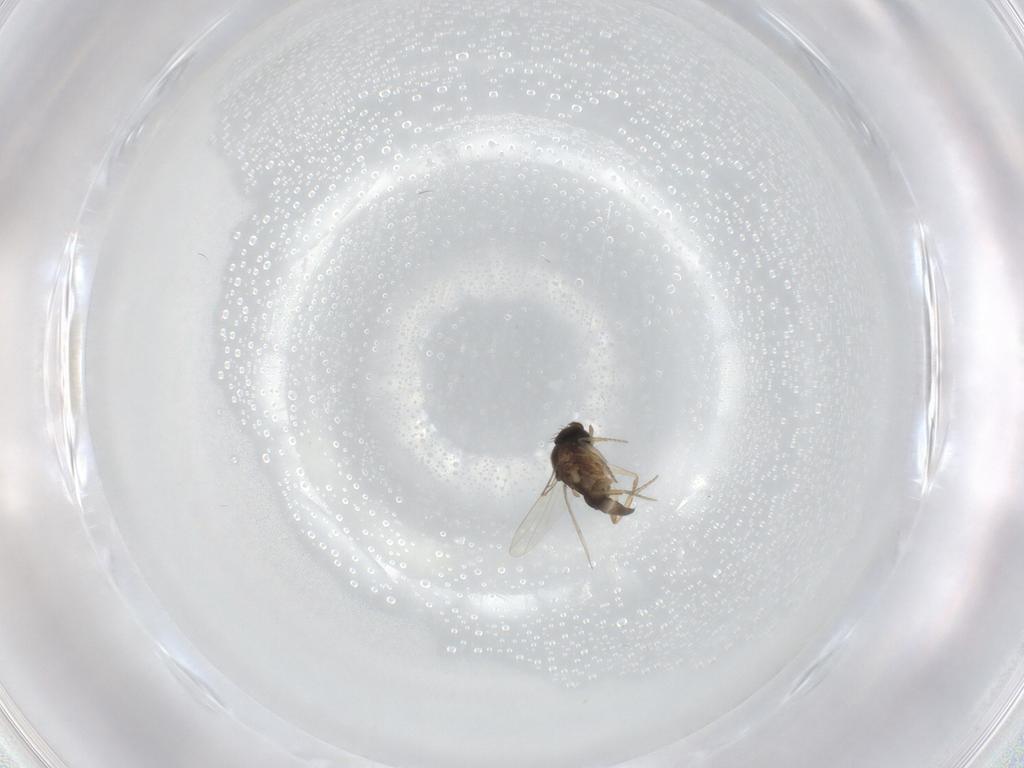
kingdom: Animalia
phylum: Arthropoda
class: Insecta
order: Diptera
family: Phoridae
